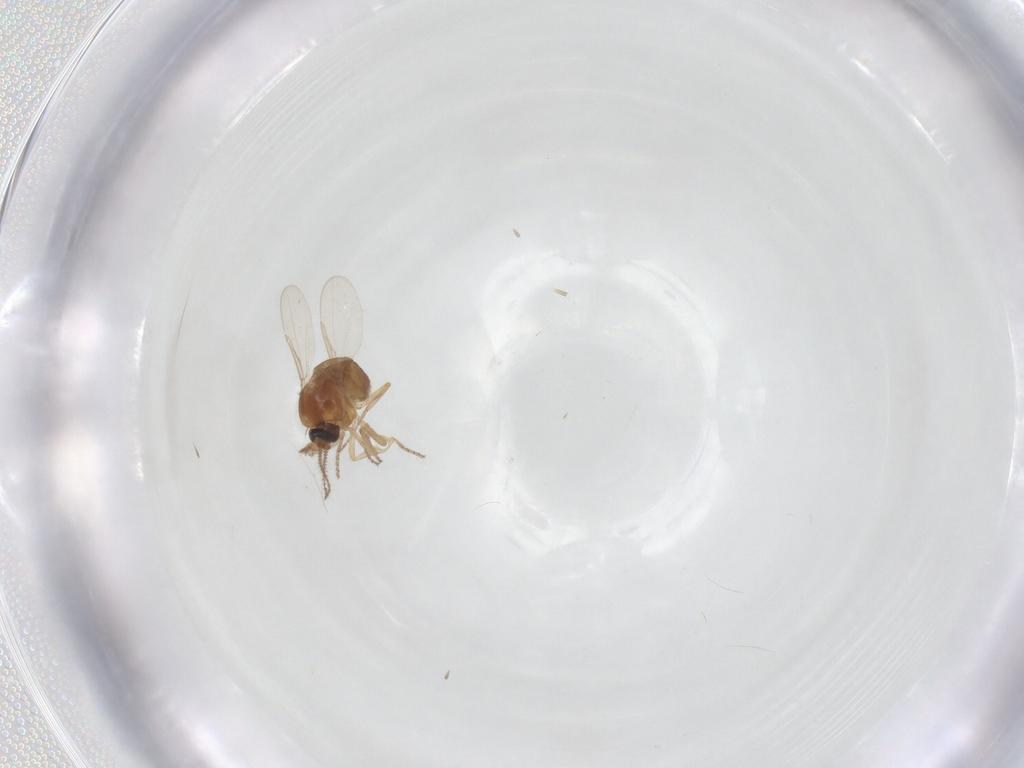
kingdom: Animalia
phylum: Arthropoda
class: Insecta
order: Diptera
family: Ceratopogonidae
